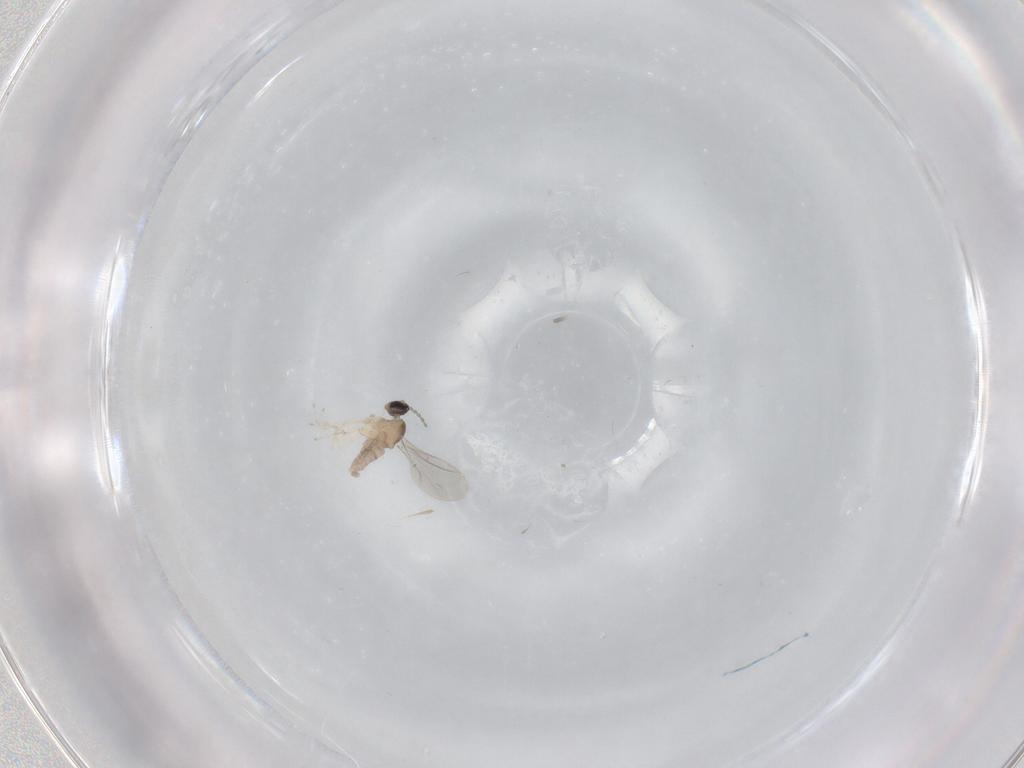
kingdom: Animalia
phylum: Arthropoda
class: Insecta
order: Diptera
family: Cecidomyiidae
